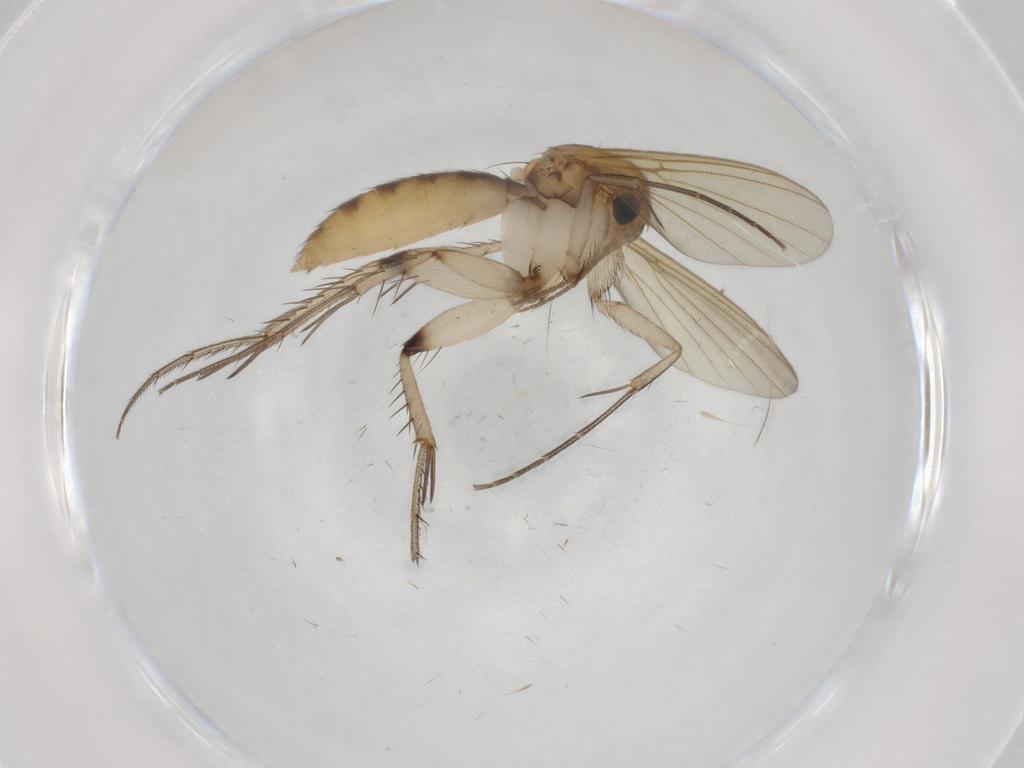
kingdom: Animalia
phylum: Arthropoda
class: Insecta
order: Diptera
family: Mycetophilidae
